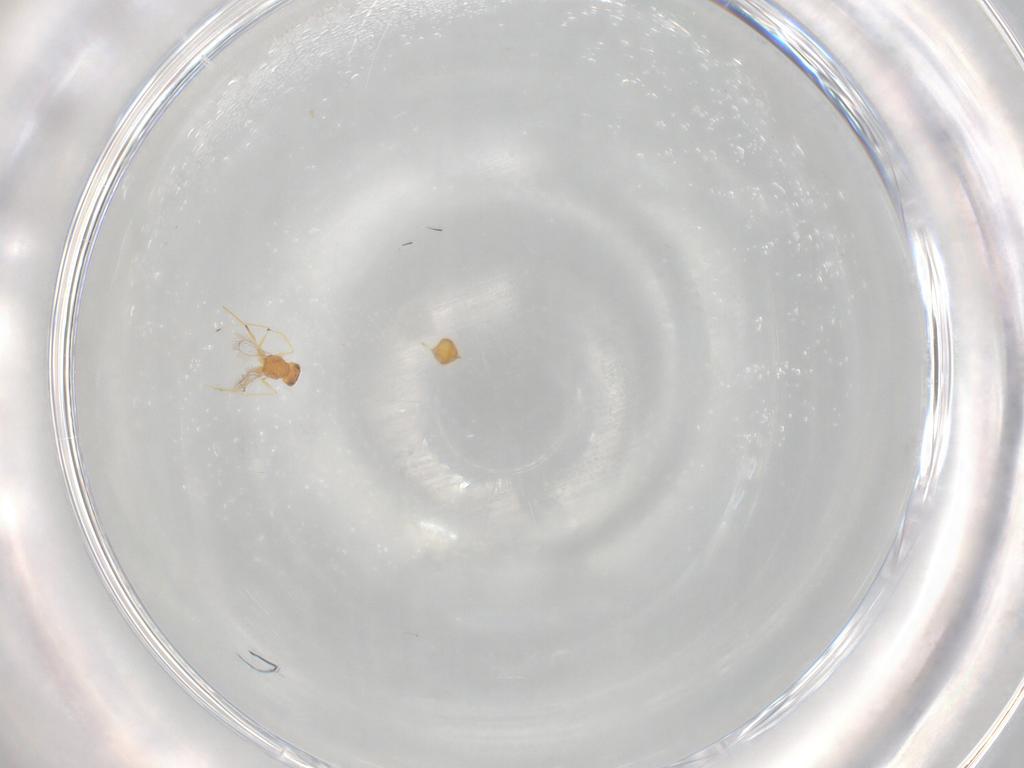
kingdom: Animalia
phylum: Arthropoda
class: Insecta
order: Hymenoptera
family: Mymaridae
